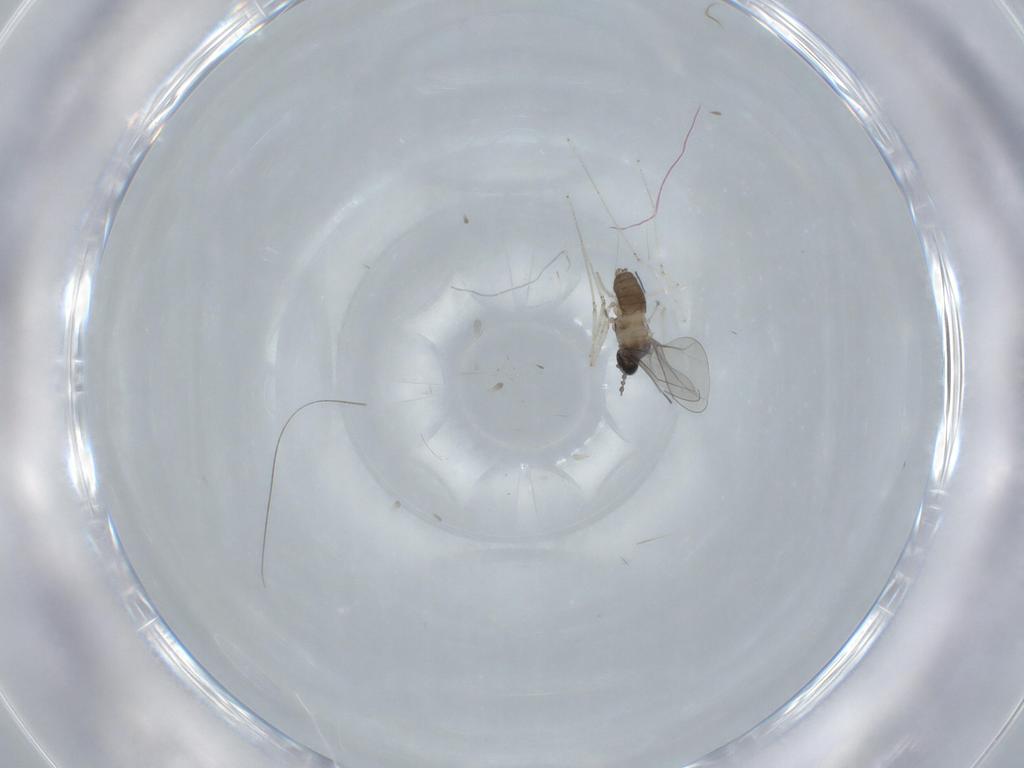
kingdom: Animalia
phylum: Arthropoda
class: Insecta
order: Diptera
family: Cecidomyiidae
